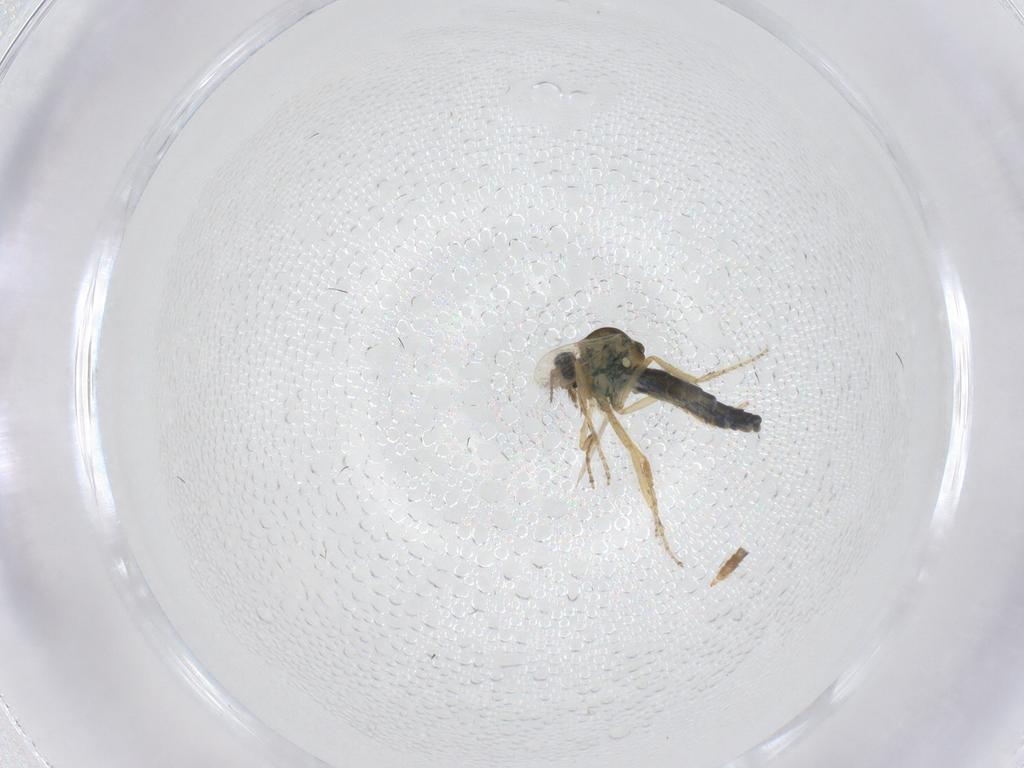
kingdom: Animalia
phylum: Arthropoda
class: Insecta
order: Diptera
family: Ceratopogonidae
